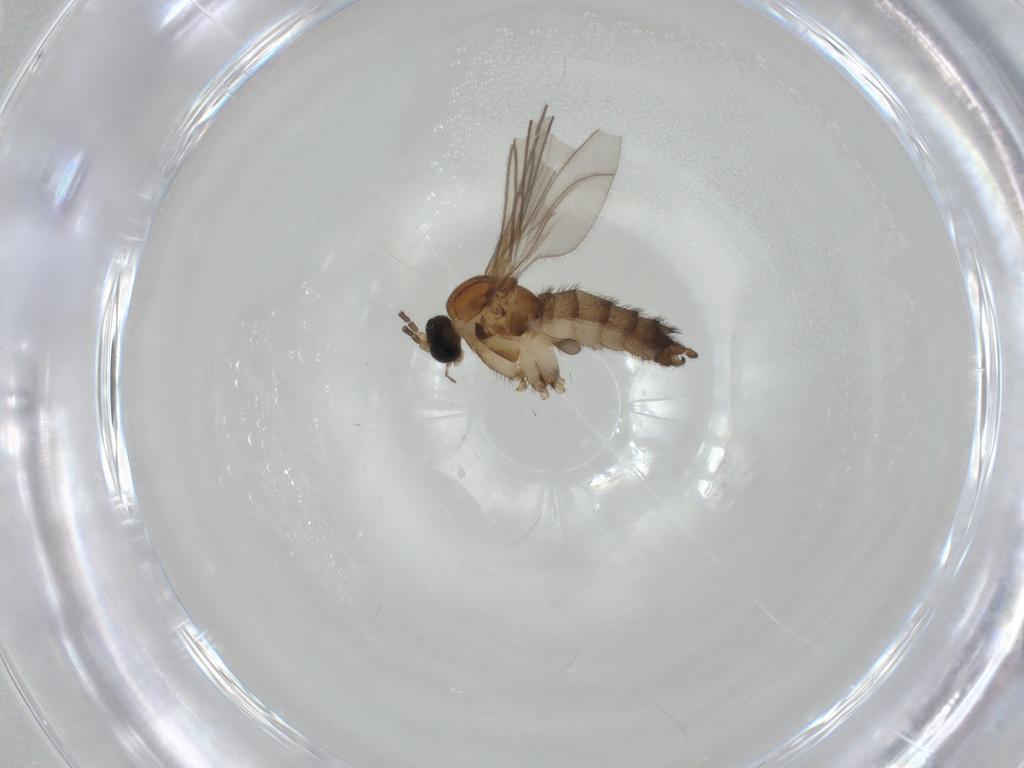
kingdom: Animalia
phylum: Arthropoda
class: Insecta
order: Diptera
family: Sciaridae
